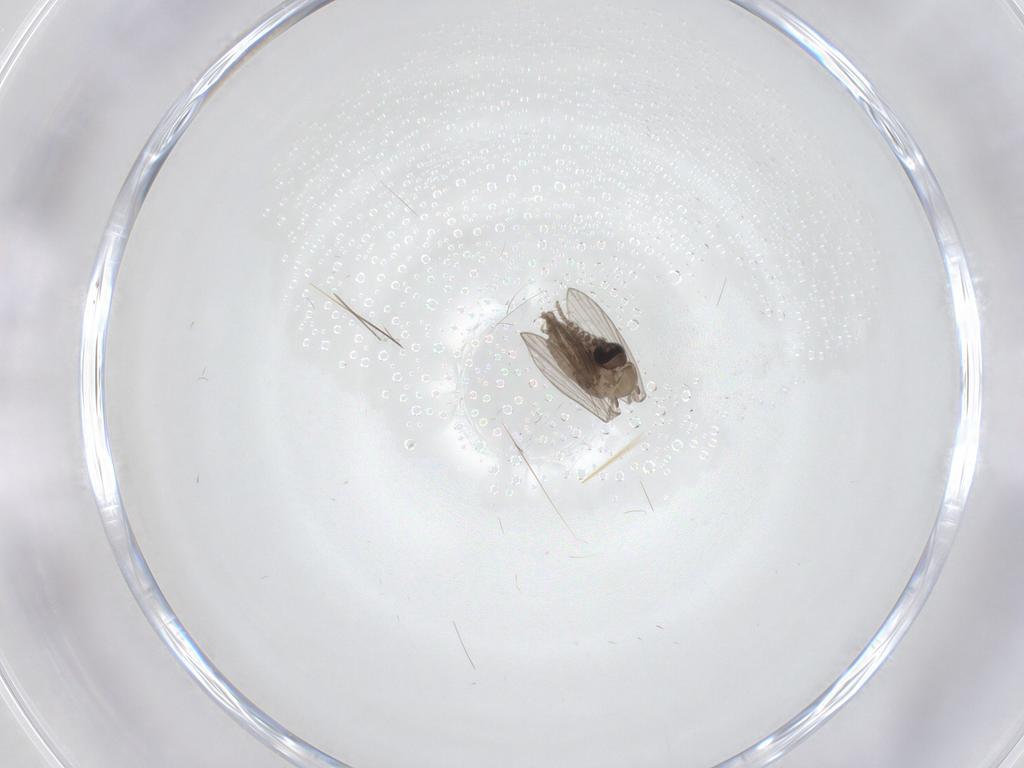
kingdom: Animalia
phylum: Arthropoda
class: Insecta
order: Diptera
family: Psychodidae
